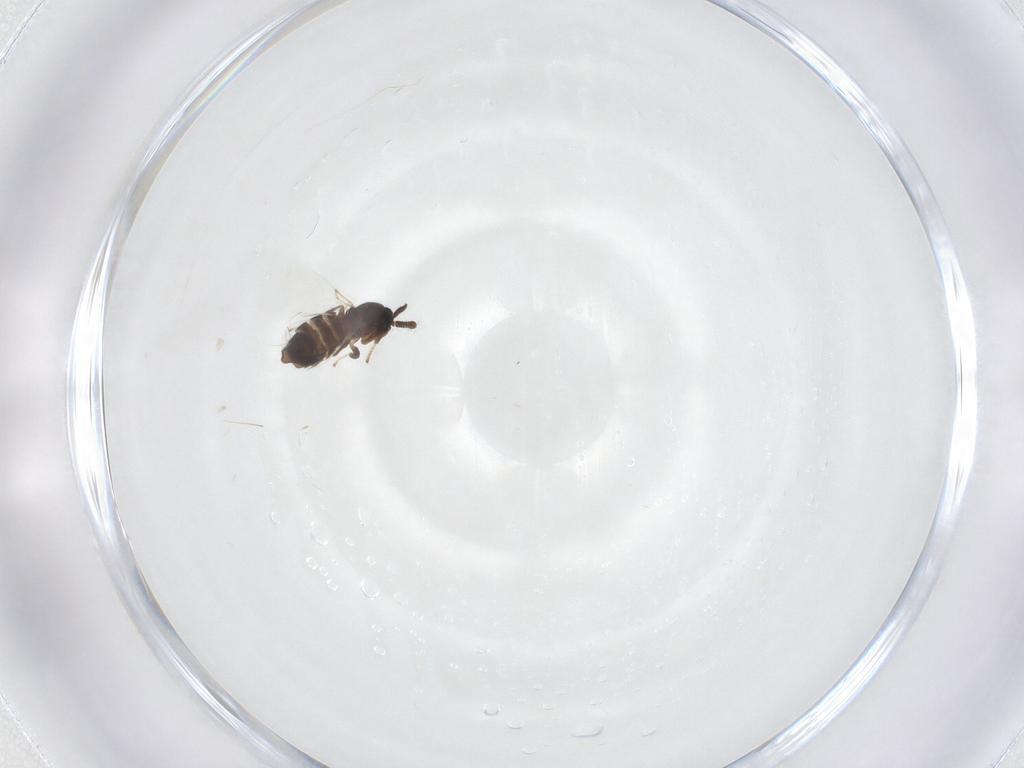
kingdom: Animalia
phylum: Arthropoda
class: Insecta
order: Diptera
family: Scatopsidae
